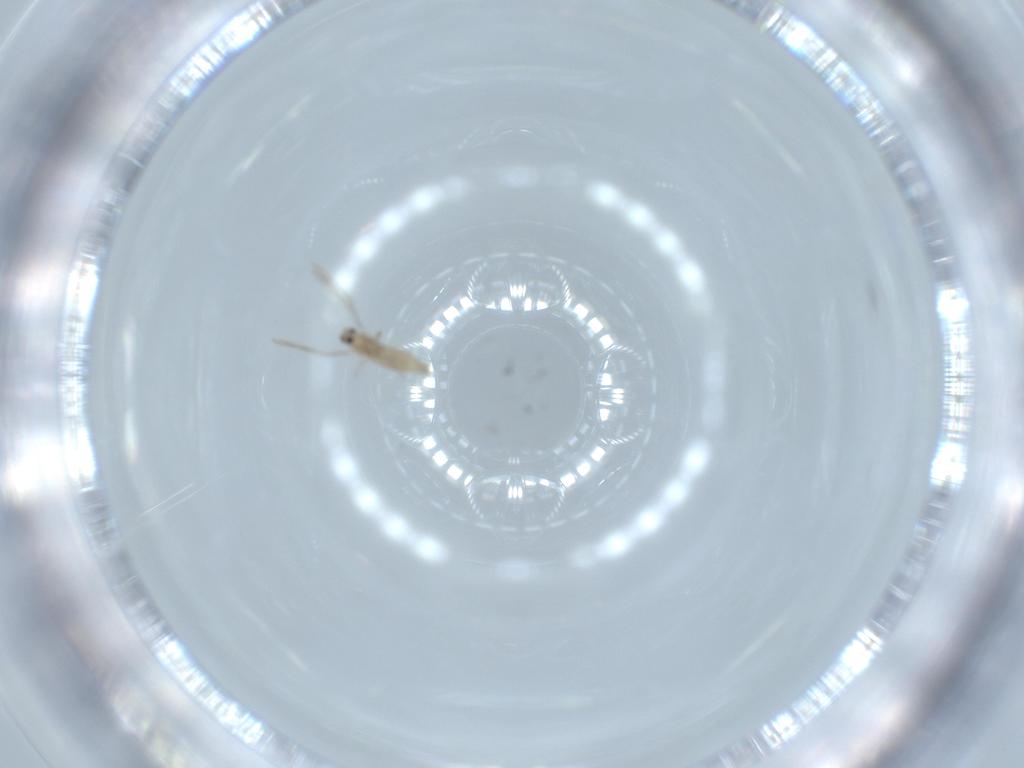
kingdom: Animalia
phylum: Arthropoda
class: Insecta
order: Diptera
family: Cecidomyiidae
